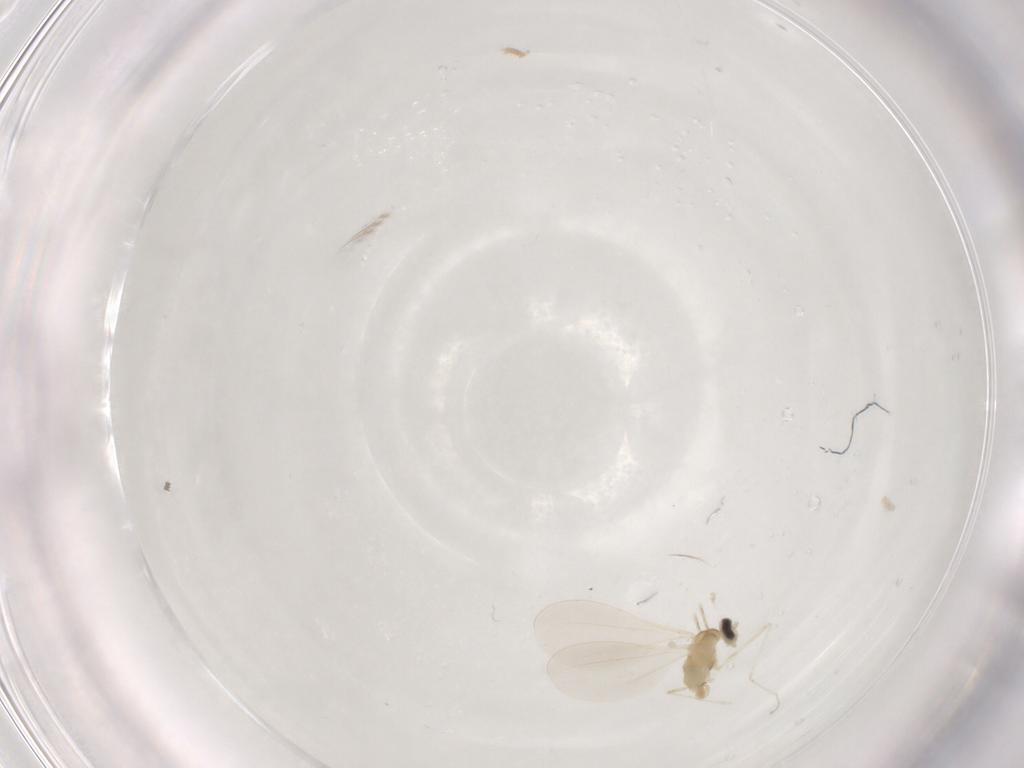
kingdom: Animalia
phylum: Arthropoda
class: Insecta
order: Diptera
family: Cecidomyiidae
